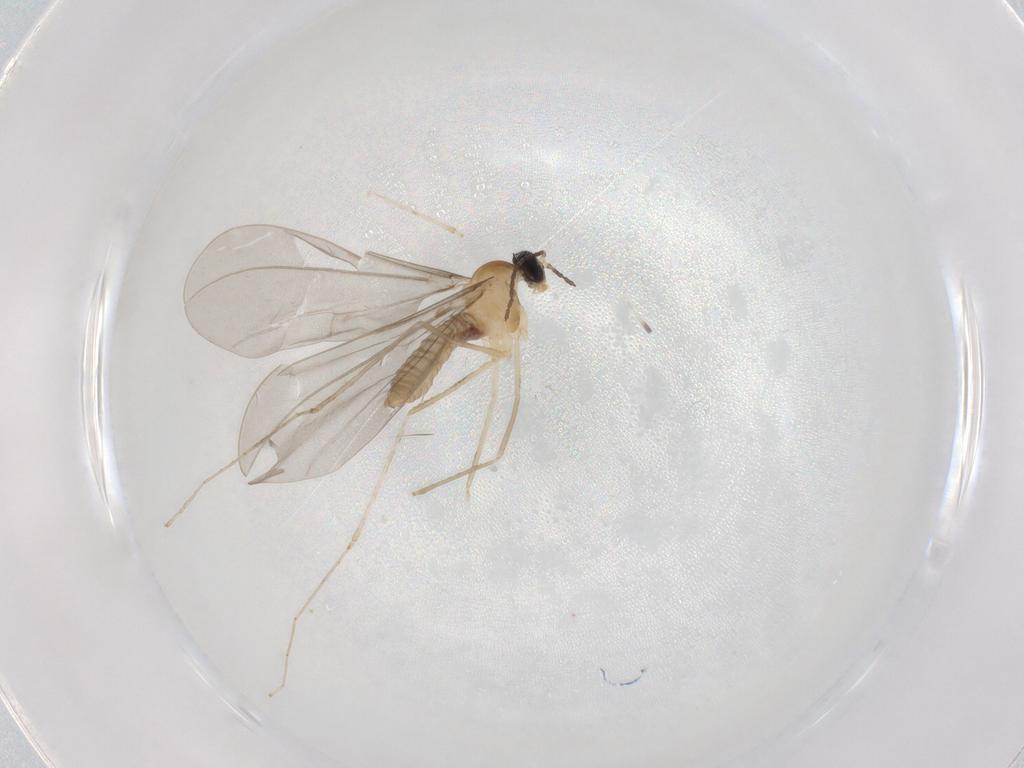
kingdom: Animalia
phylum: Arthropoda
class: Insecta
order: Diptera
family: Cecidomyiidae
